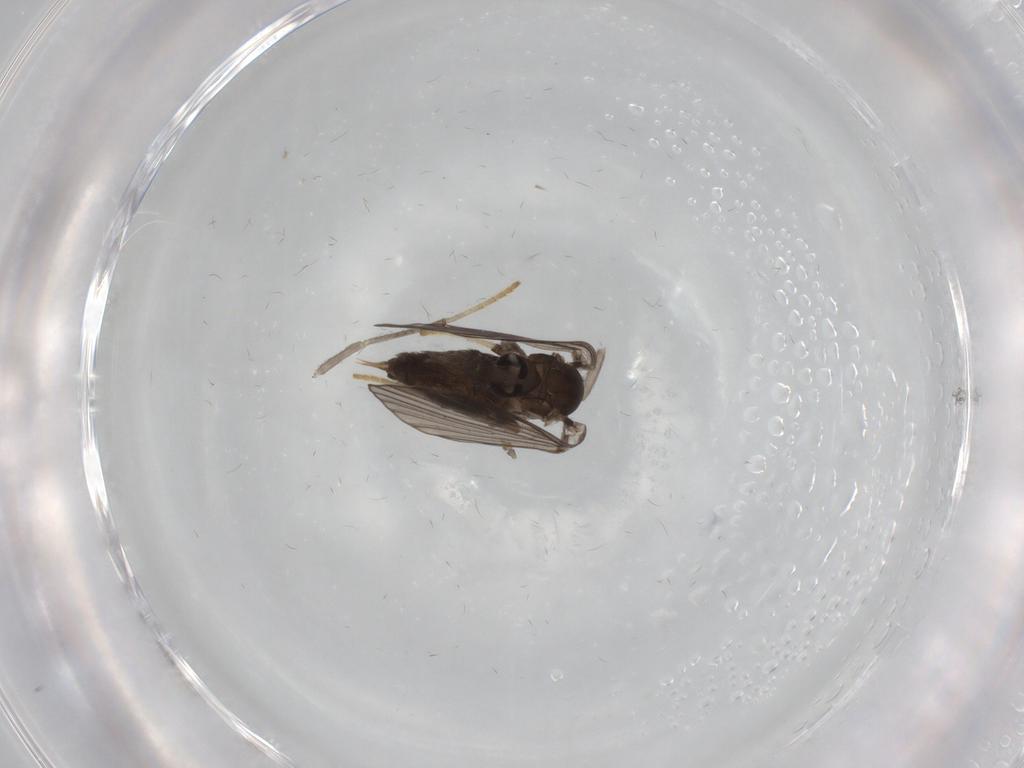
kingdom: Animalia
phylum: Arthropoda
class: Insecta
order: Diptera
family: Psychodidae
